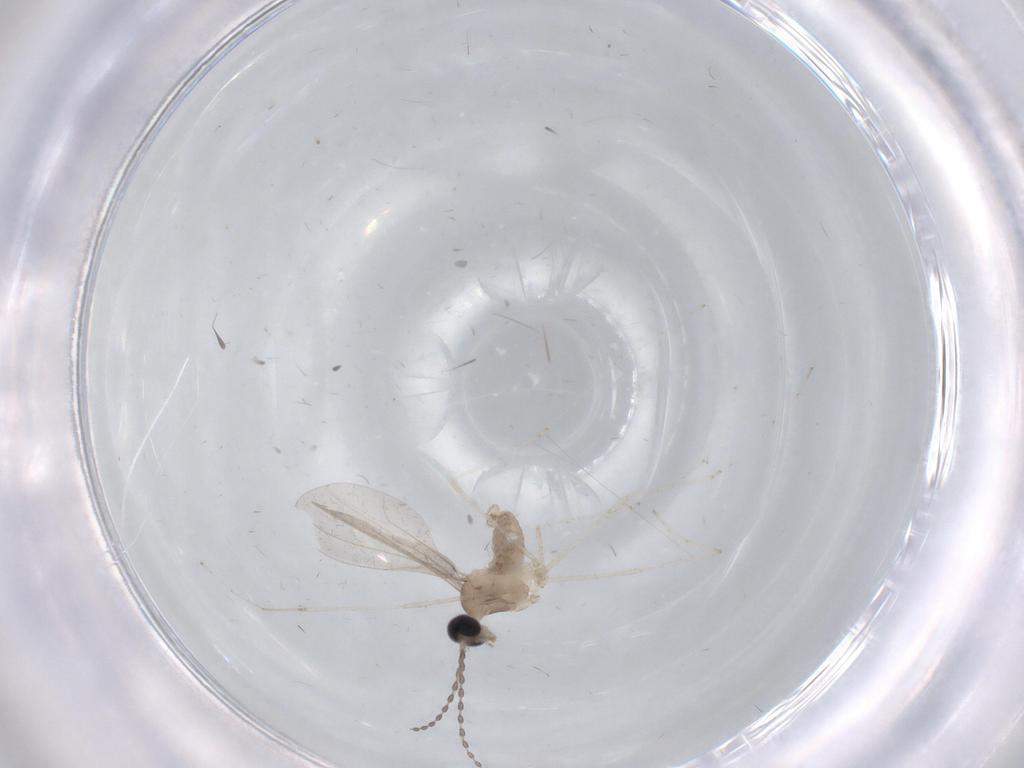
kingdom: Animalia
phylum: Arthropoda
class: Insecta
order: Diptera
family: Cecidomyiidae
